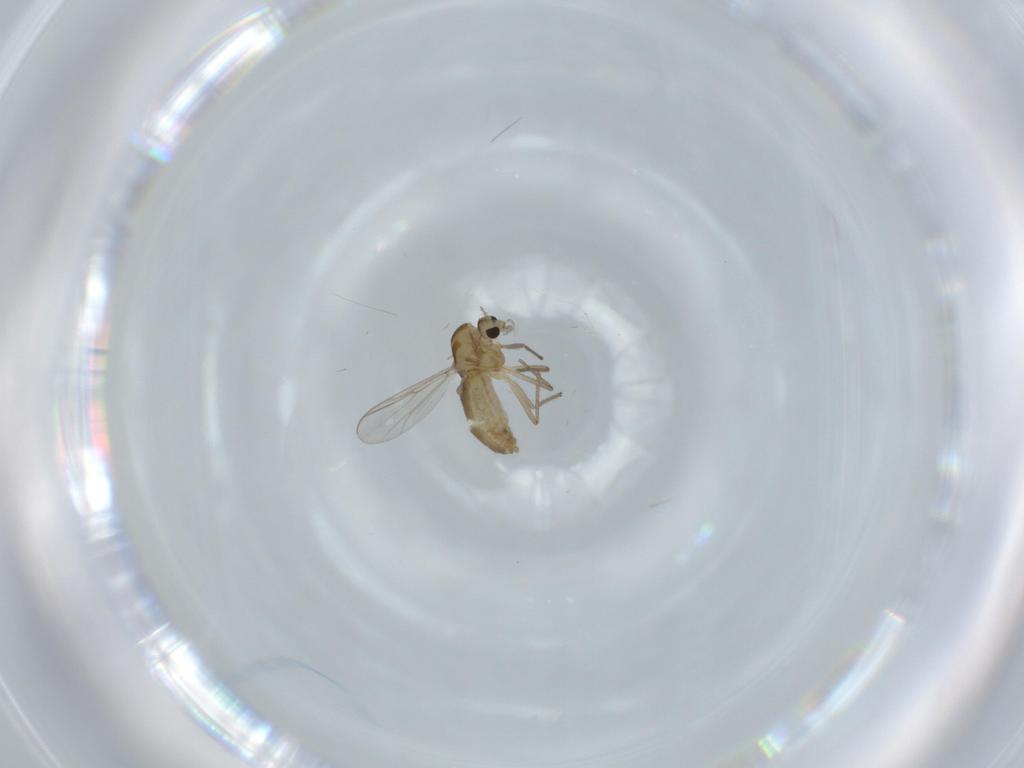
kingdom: Animalia
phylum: Arthropoda
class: Insecta
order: Diptera
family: Chironomidae
